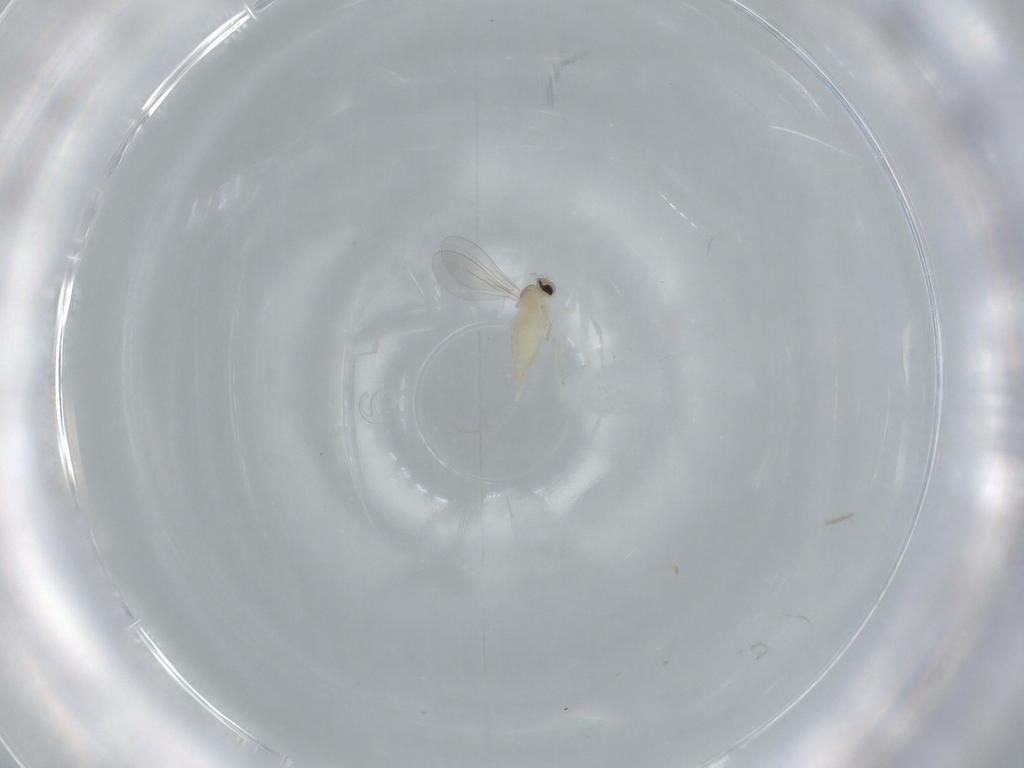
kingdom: Animalia
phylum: Arthropoda
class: Insecta
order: Diptera
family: Cecidomyiidae
